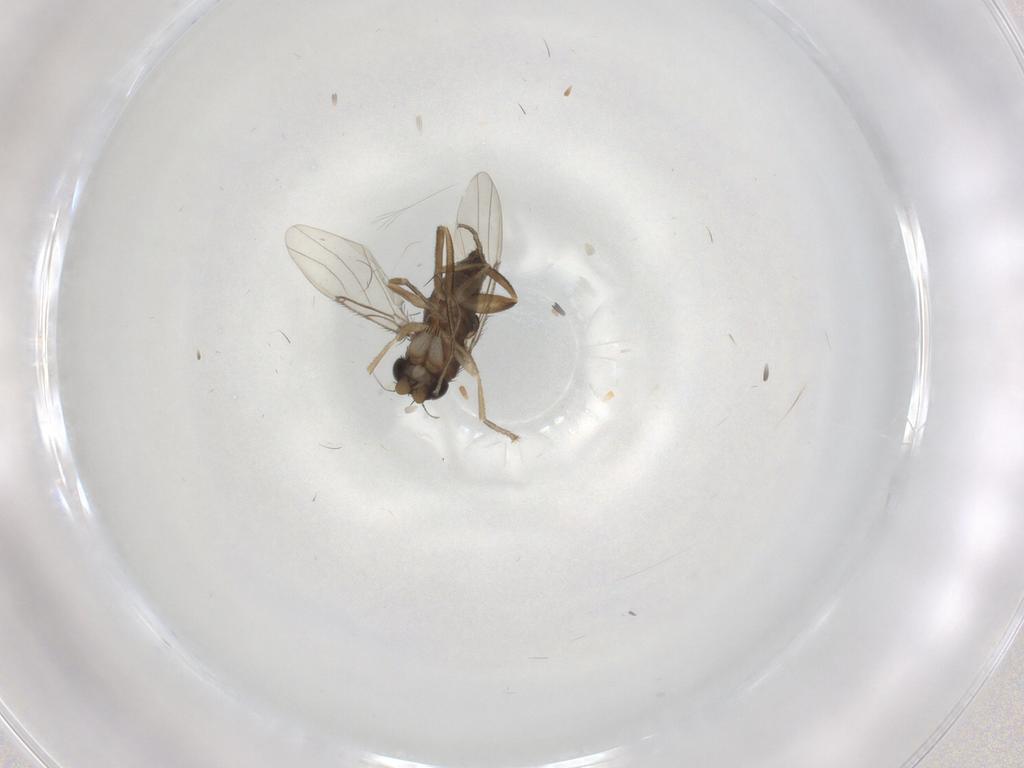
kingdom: Animalia
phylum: Arthropoda
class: Insecta
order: Diptera
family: Phoridae
